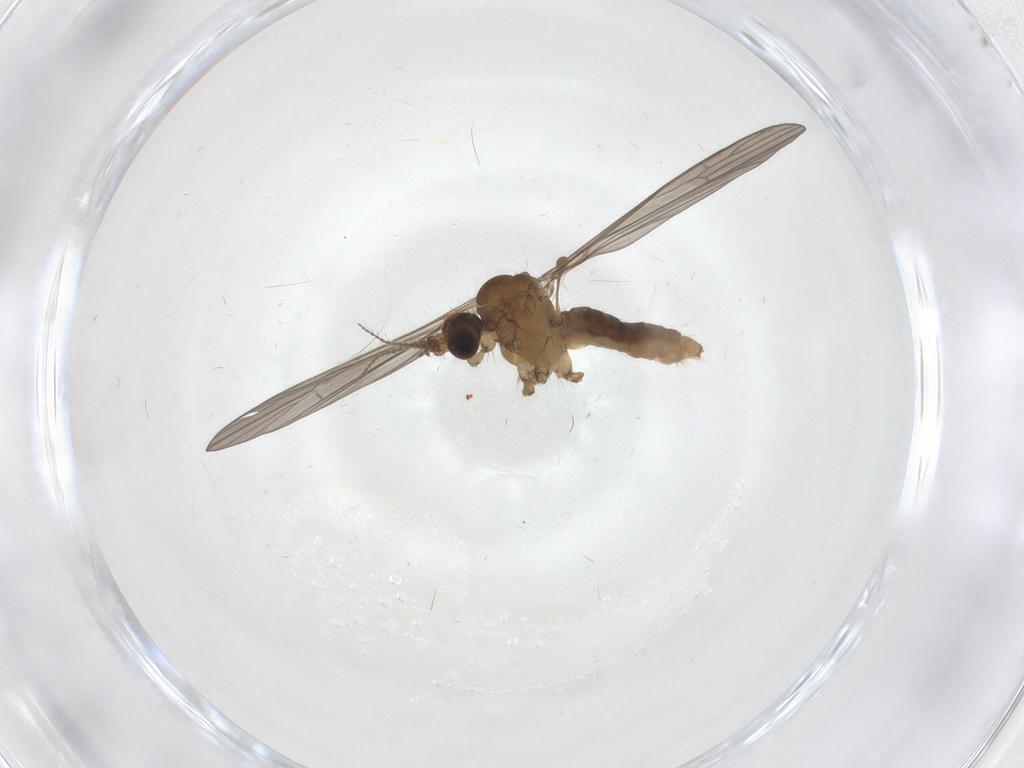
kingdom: Animalia
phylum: Arthropoda
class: Insecta
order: Diptera
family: Limoniidae
